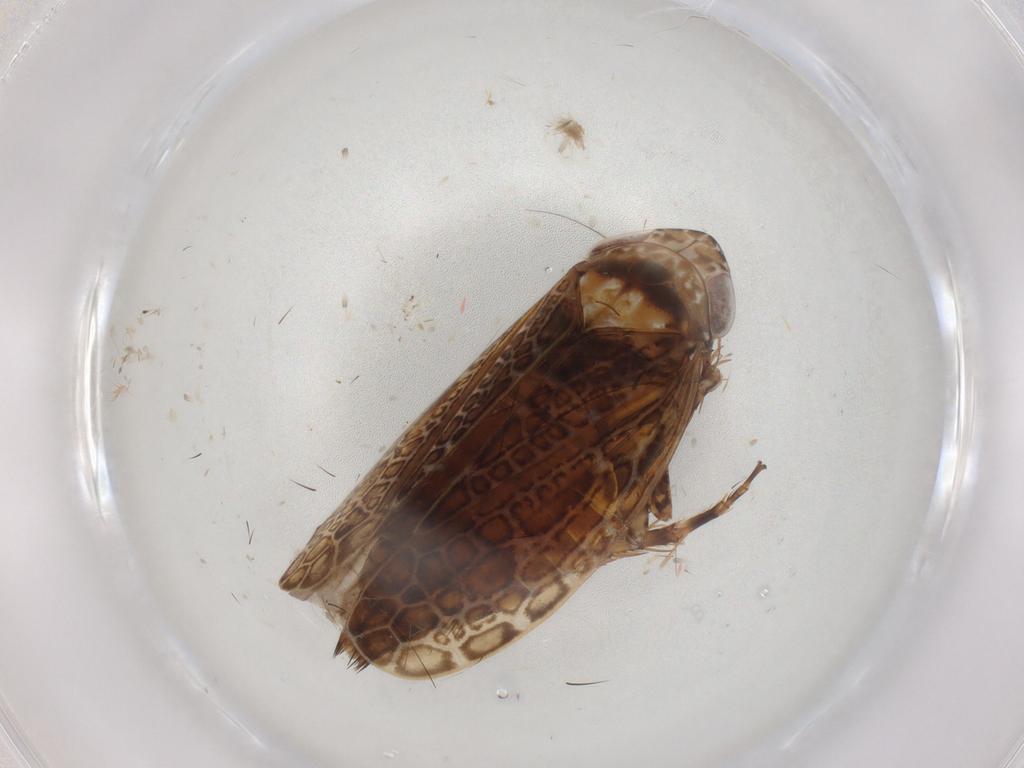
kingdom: Animalia
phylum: Arthropoda
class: Insecta
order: Hemiptera
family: Cicadellidae
